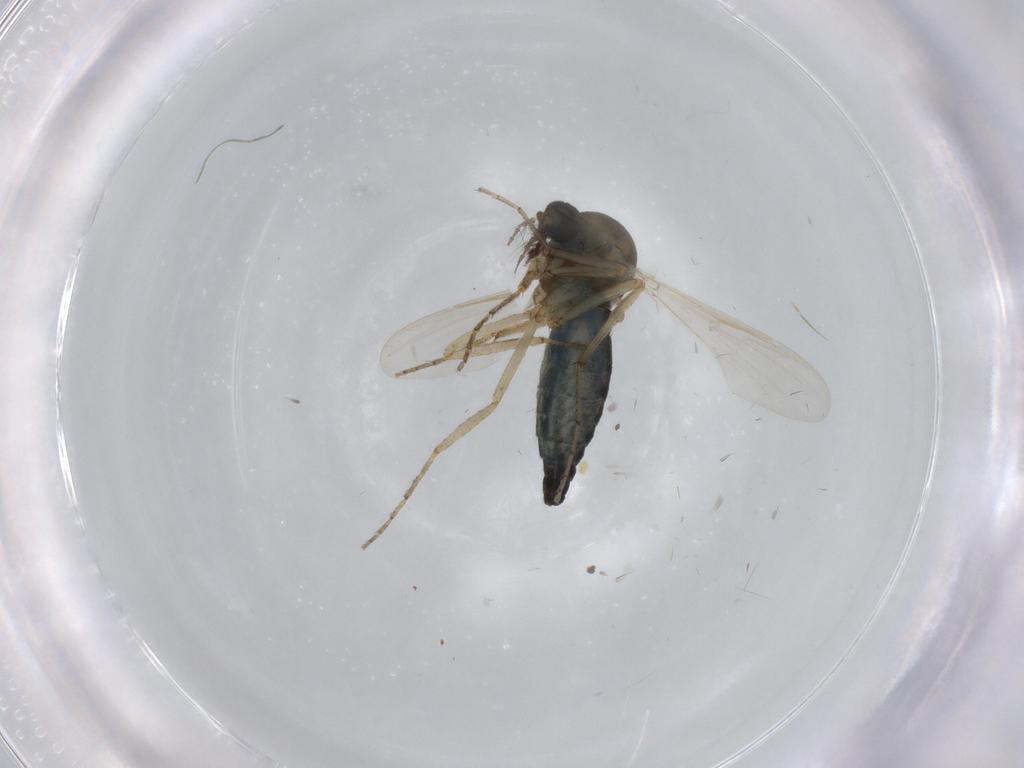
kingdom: Animalia
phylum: Arthropoda
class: Insecta
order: Diptera
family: Ceratopogonidae
